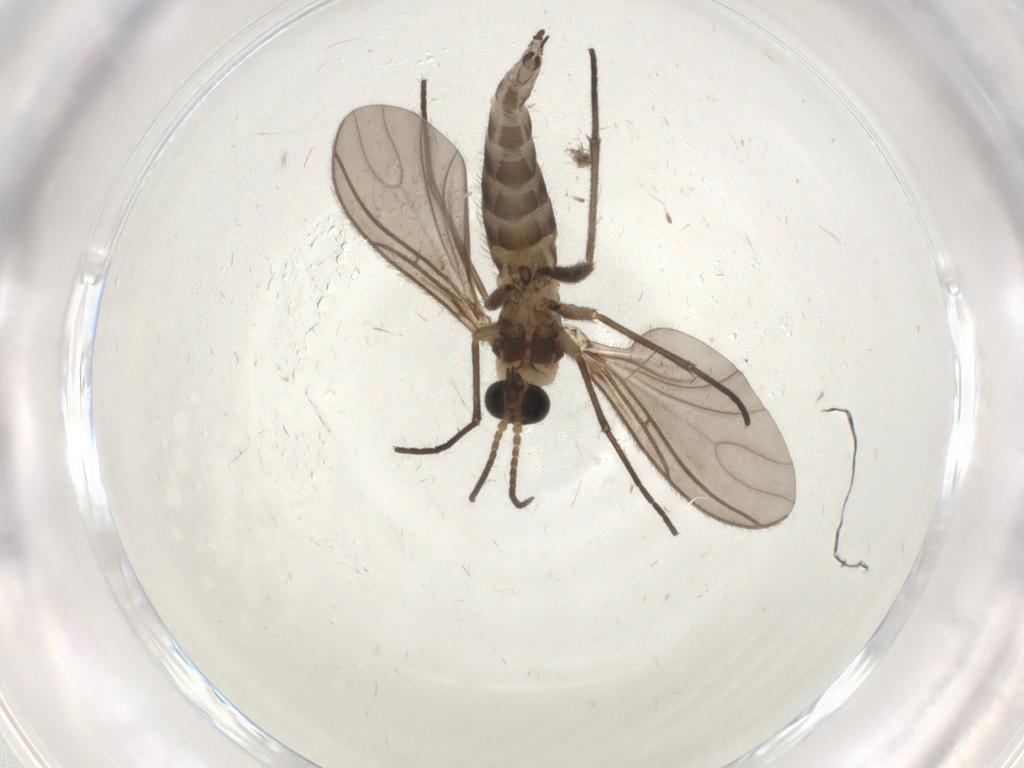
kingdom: Animalia
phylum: Arthropoda
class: Insecta
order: Diptera
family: Sciaridae
